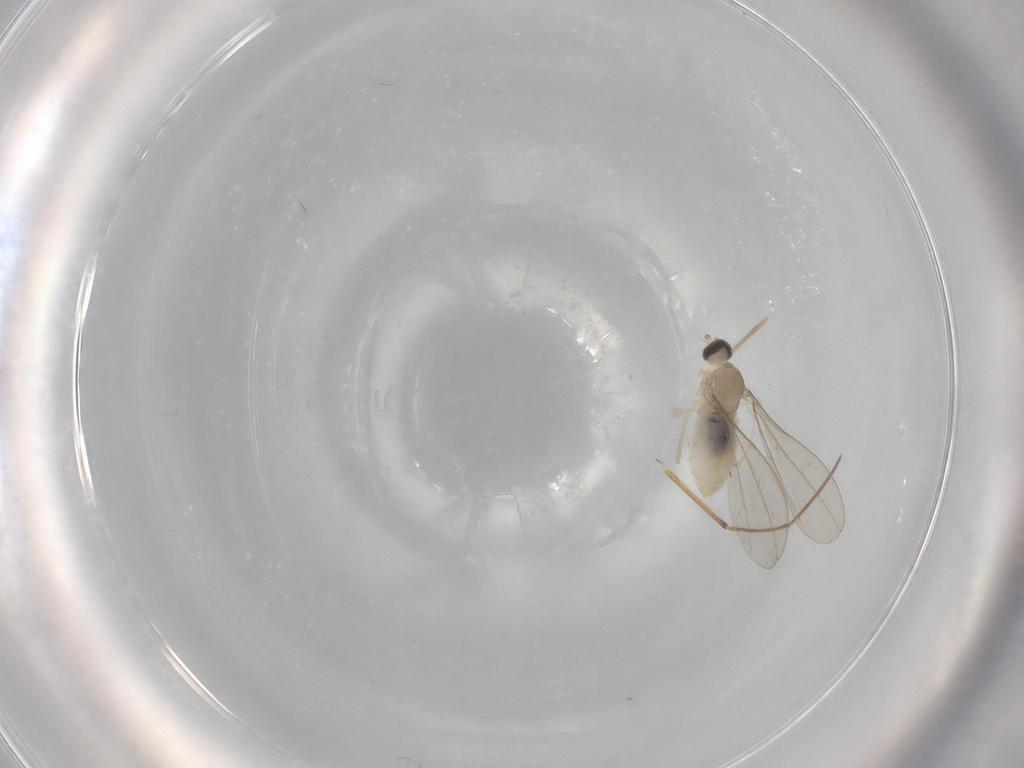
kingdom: Animalia
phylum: Arthropoda
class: Insecta
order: Diptera
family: Cecidomyiidae
